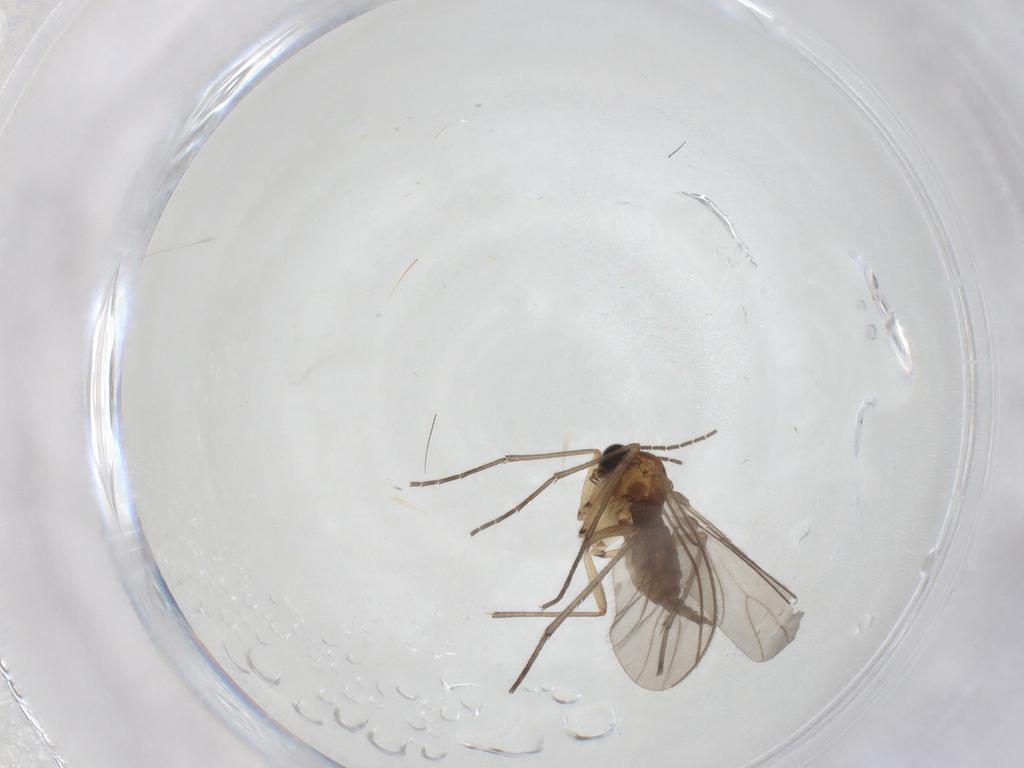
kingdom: Animalia
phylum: Arthropoda
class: Insecta
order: Diptera
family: Sciaridae
